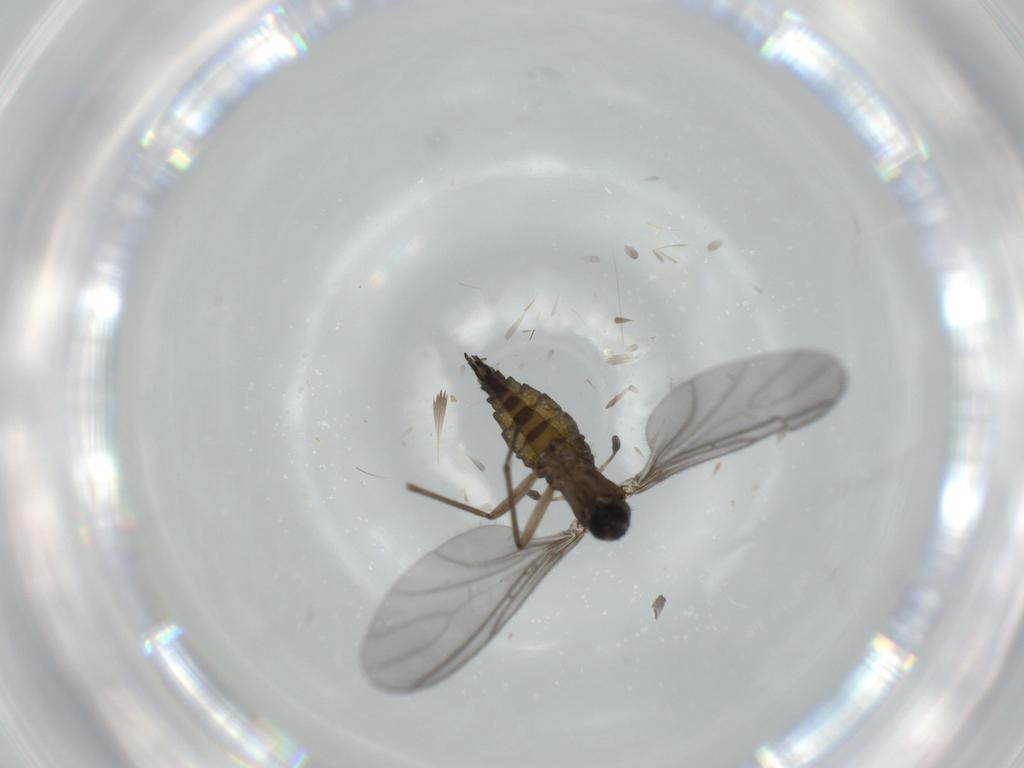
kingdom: Animalia
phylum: Arthropoda
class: Insecta
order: Diptera
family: Sciaridae
